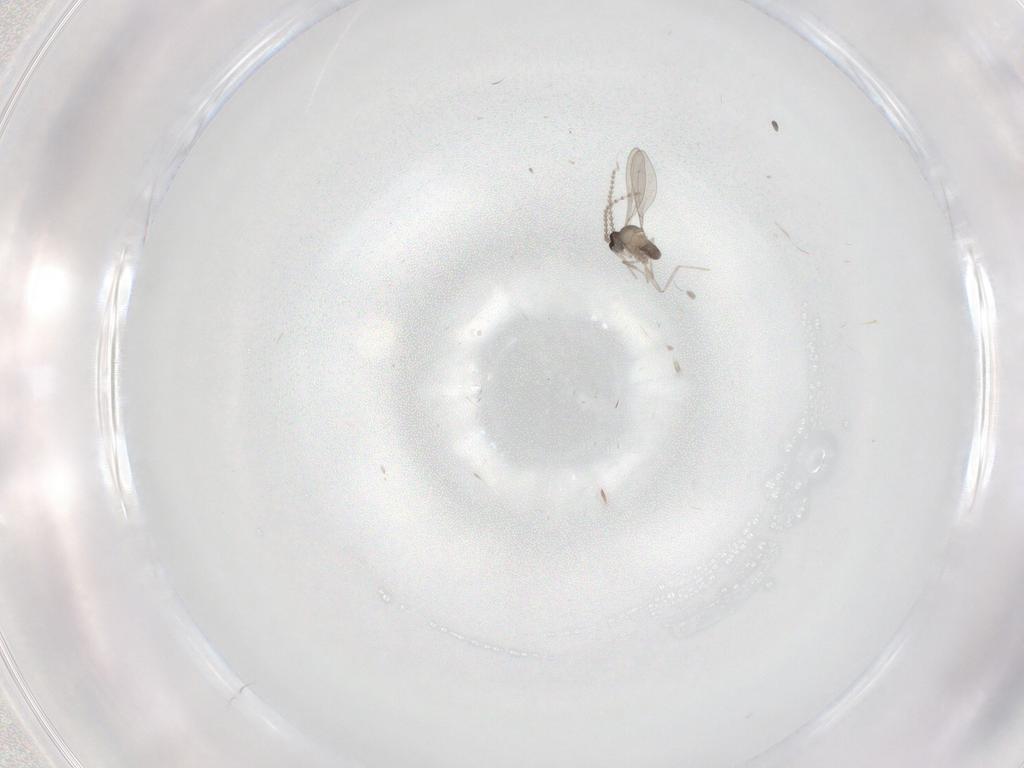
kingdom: Animalia
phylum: Arthropoda
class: Insecta
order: Diptera
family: Cecidomyiidae
